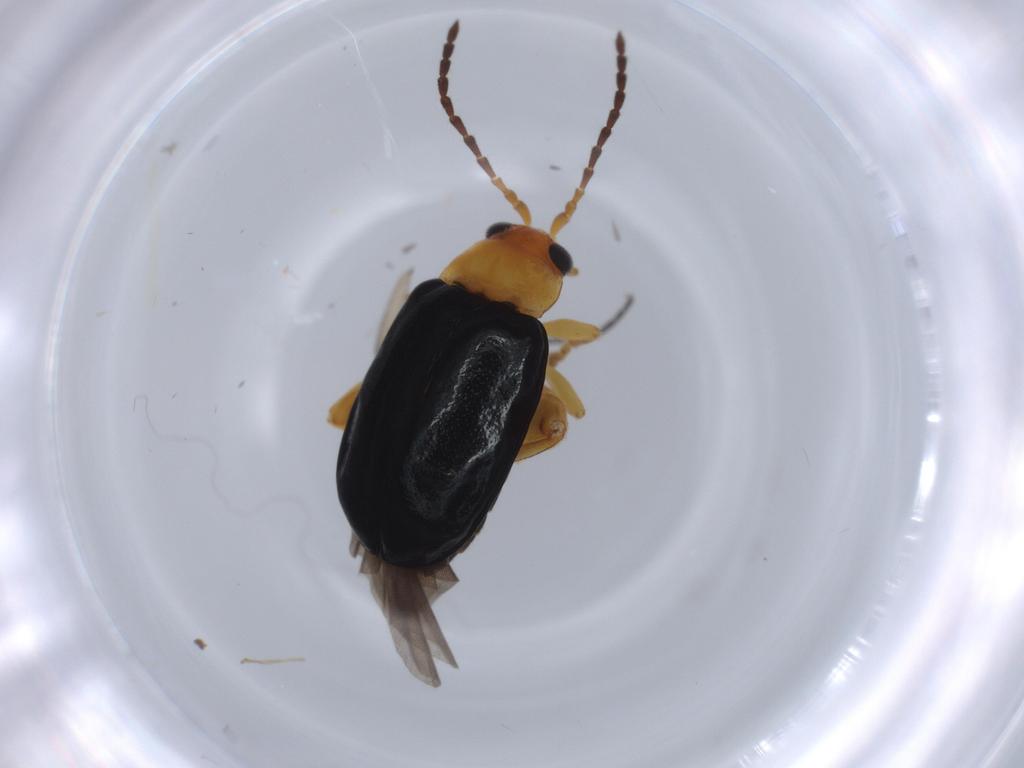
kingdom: Animalia
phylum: Arthropoda
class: Insecta
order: Coleoptera
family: Chrysomelidae
